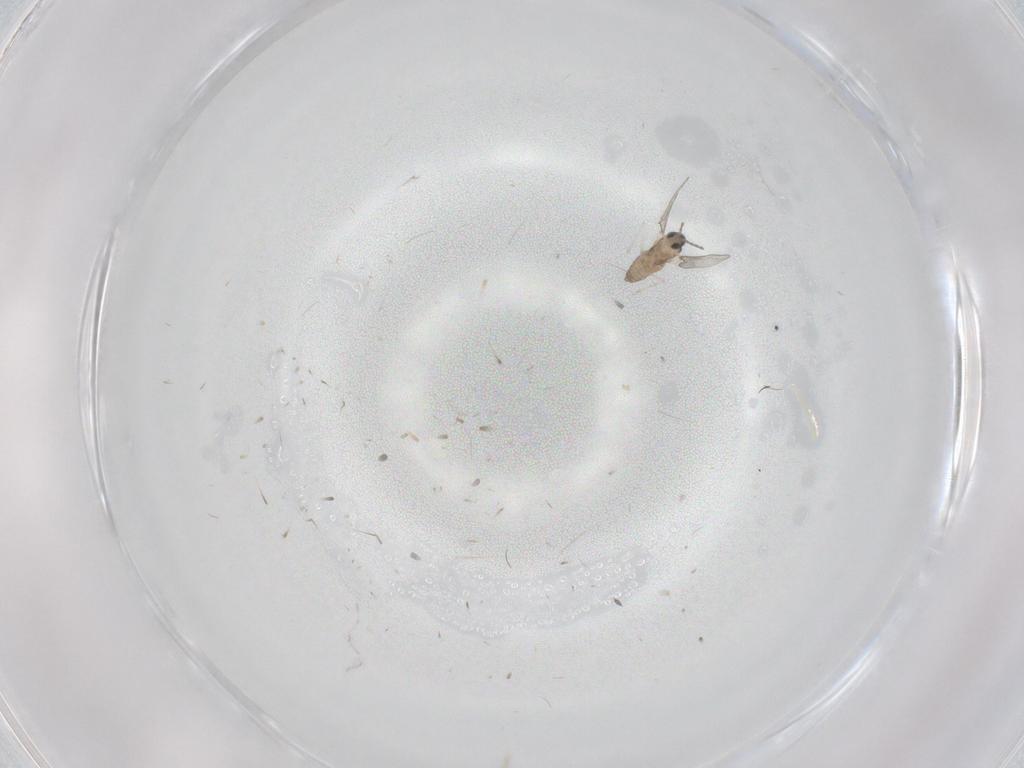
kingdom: Animalia
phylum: Arthropoda
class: Insecta
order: Diptera
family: Cecidomyiidae
